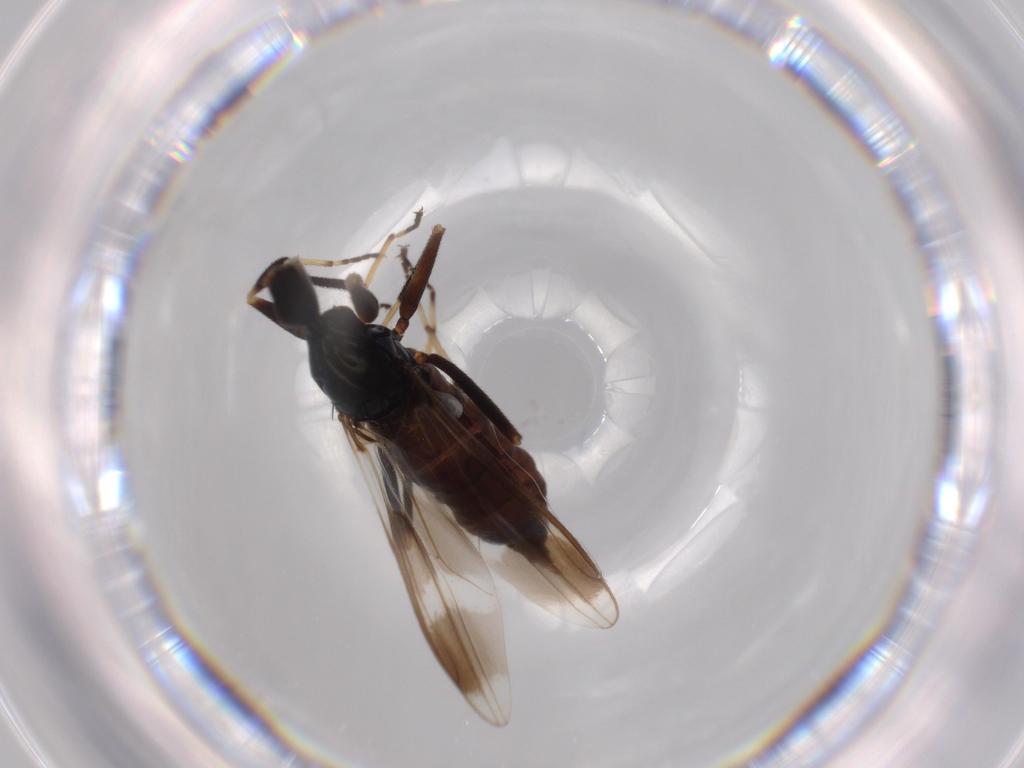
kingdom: Animalia
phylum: Arthropoda
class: Insecta
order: Diptera
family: Hybotidae
